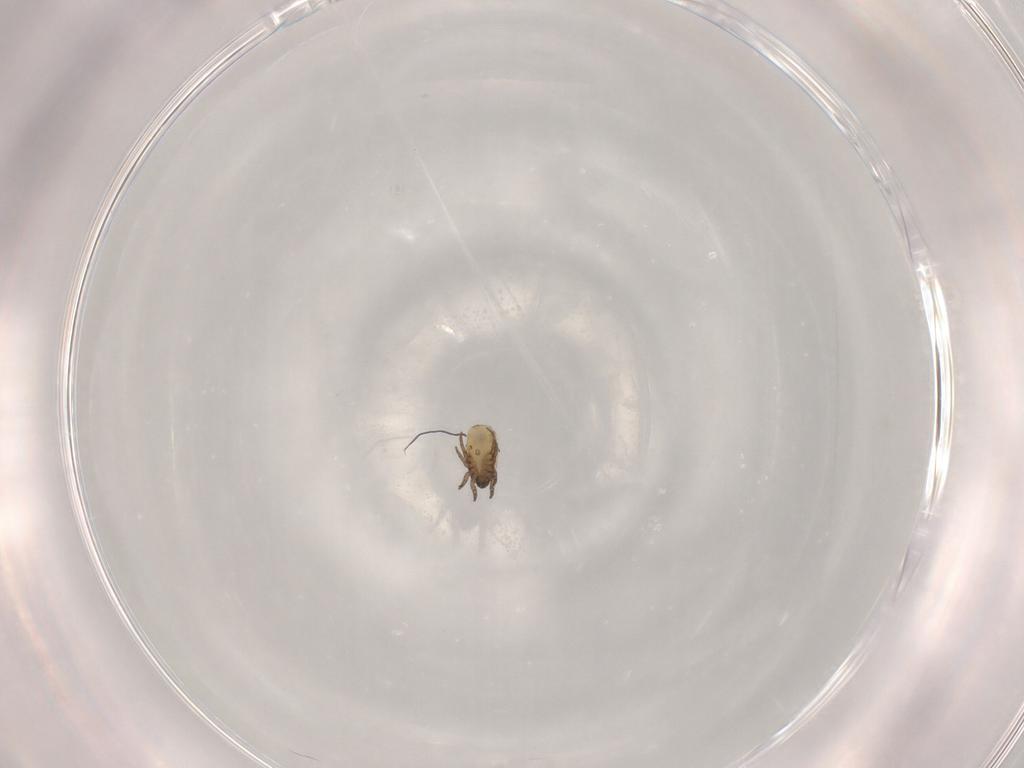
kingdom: Animalia
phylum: Arthropoda
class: Arachnida
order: Sarcoptiformes
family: Crotoniidae
